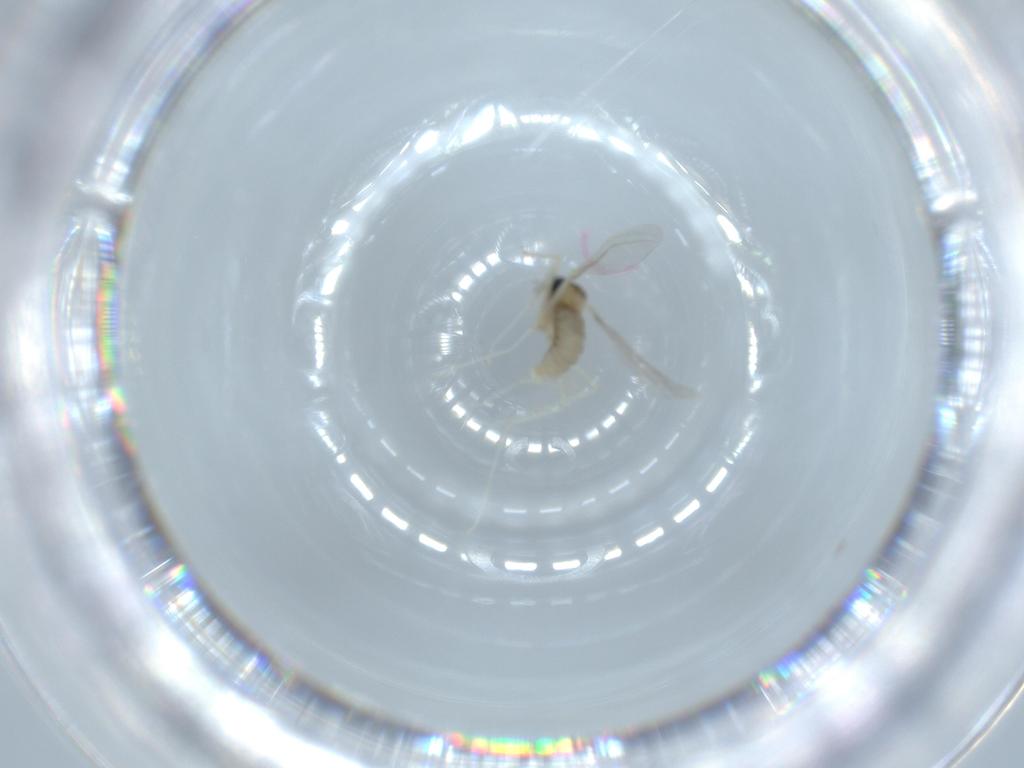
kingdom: Animalia
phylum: Arthropoda
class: Insecta
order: Diptera
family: Cecidomyiidae
